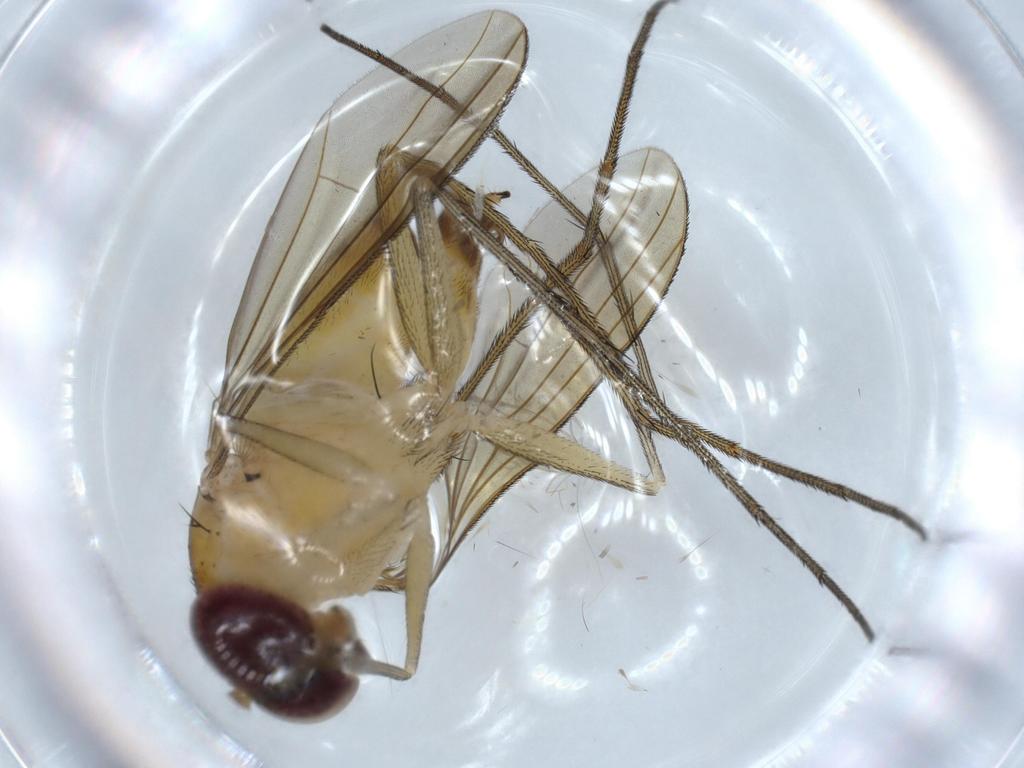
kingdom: Animalia
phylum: Arthropoda
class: Insecta
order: Diptera
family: Dolichopodidae
